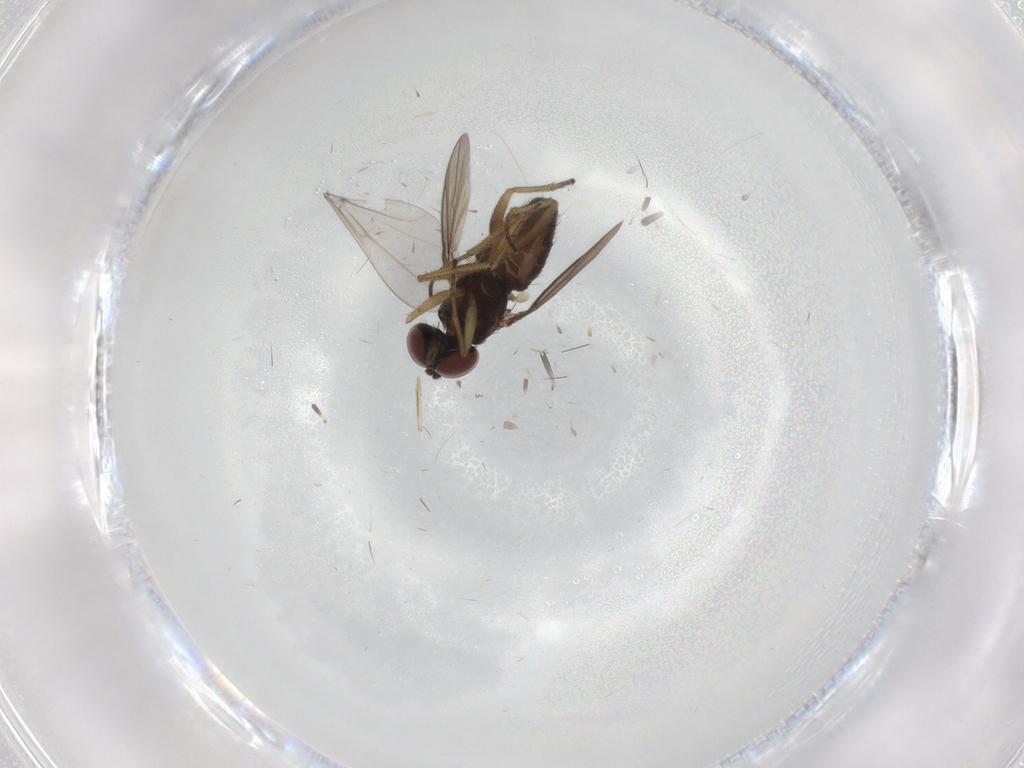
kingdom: Animalia
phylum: Arthropoda
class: Insecta
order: Diptera
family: Dolichopodidae
